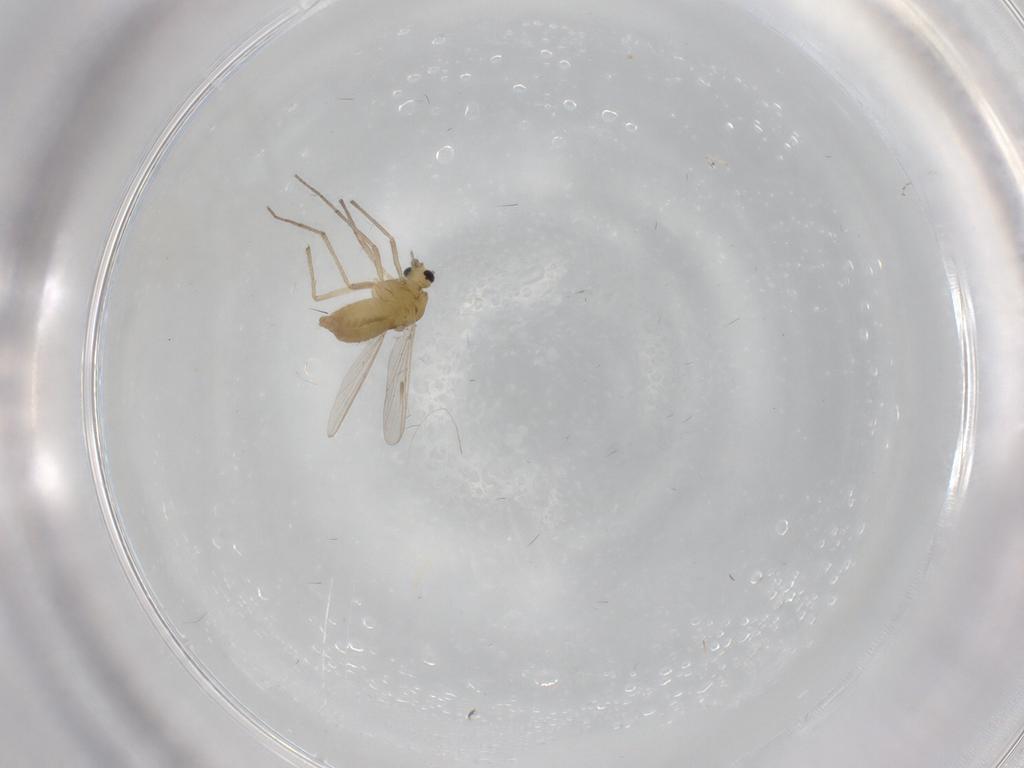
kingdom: Animalia
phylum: Arthropoda
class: Insecta
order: Diptera
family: Chironomidae
